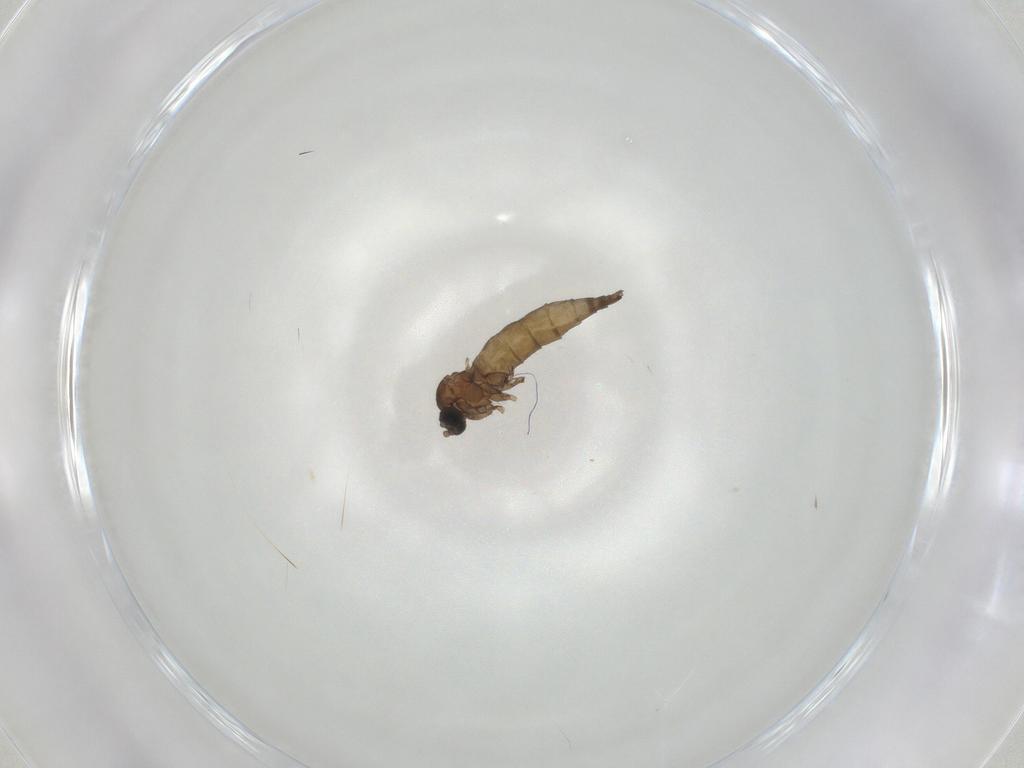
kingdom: Animalia
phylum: Arthropoda
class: Insecta
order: Diptera
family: Sciaridae
